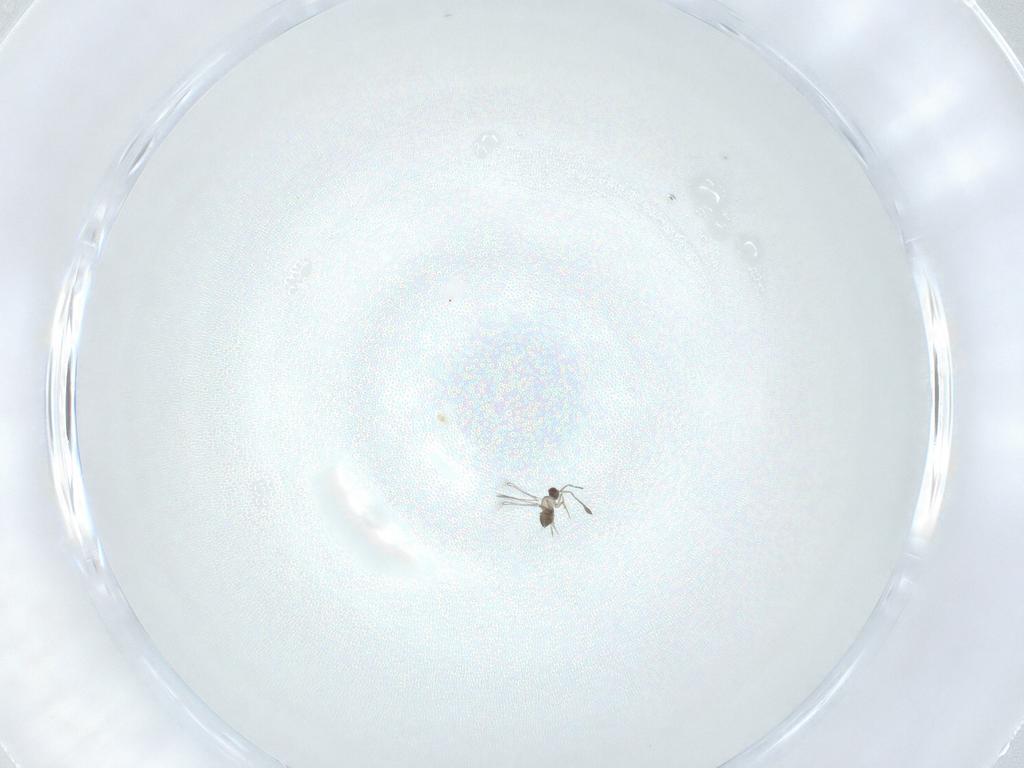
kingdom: Animalia
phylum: Arthropoda
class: Insecta
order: Hymenoptera
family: Mymaridae
